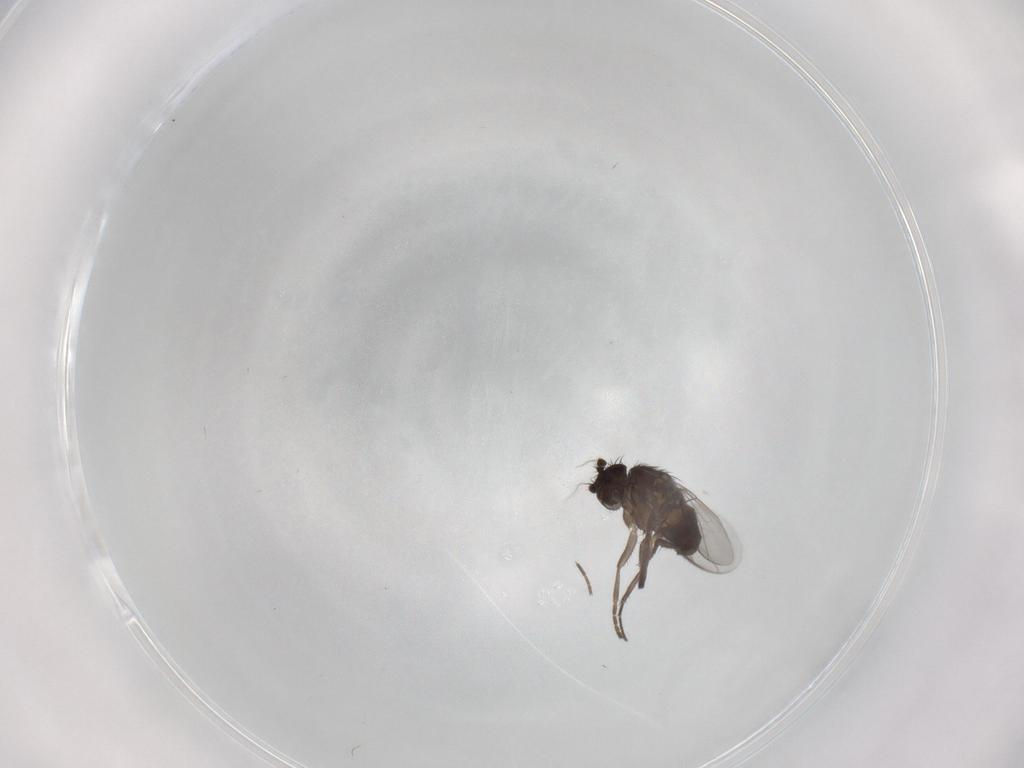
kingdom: Animalia
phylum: Arthropoda
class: Insecta
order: Diptera
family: Sphaeroceridae
